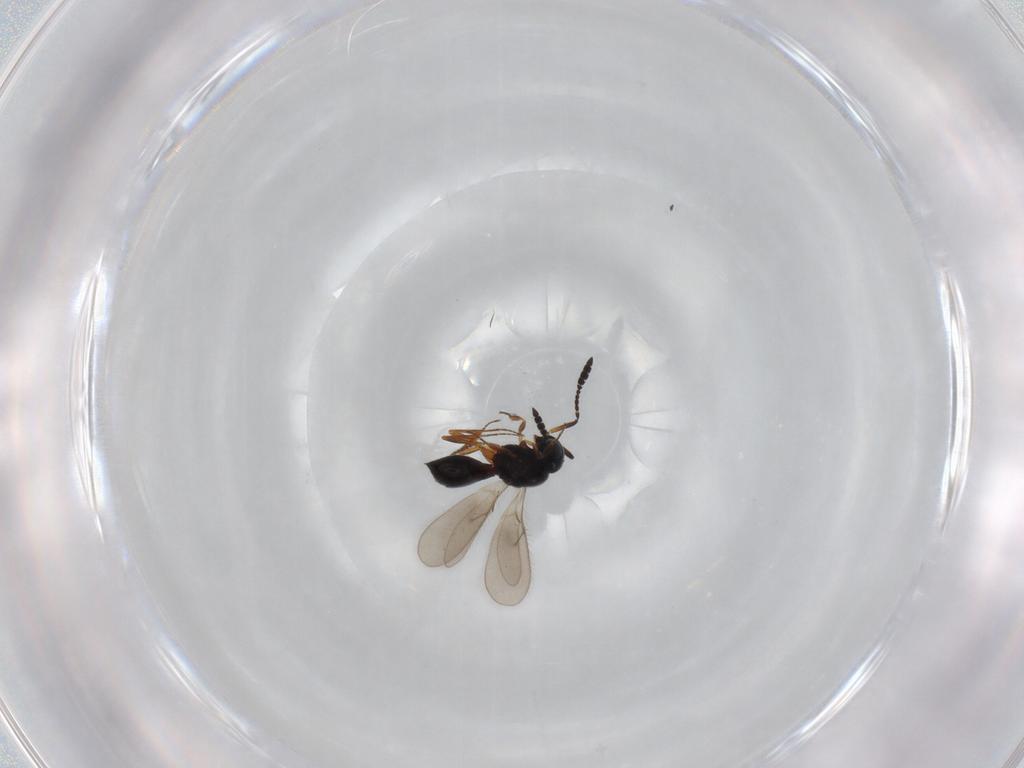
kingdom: Animalia
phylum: Arthropoda
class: Insecta
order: Hymenoptera
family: Scelionidae
